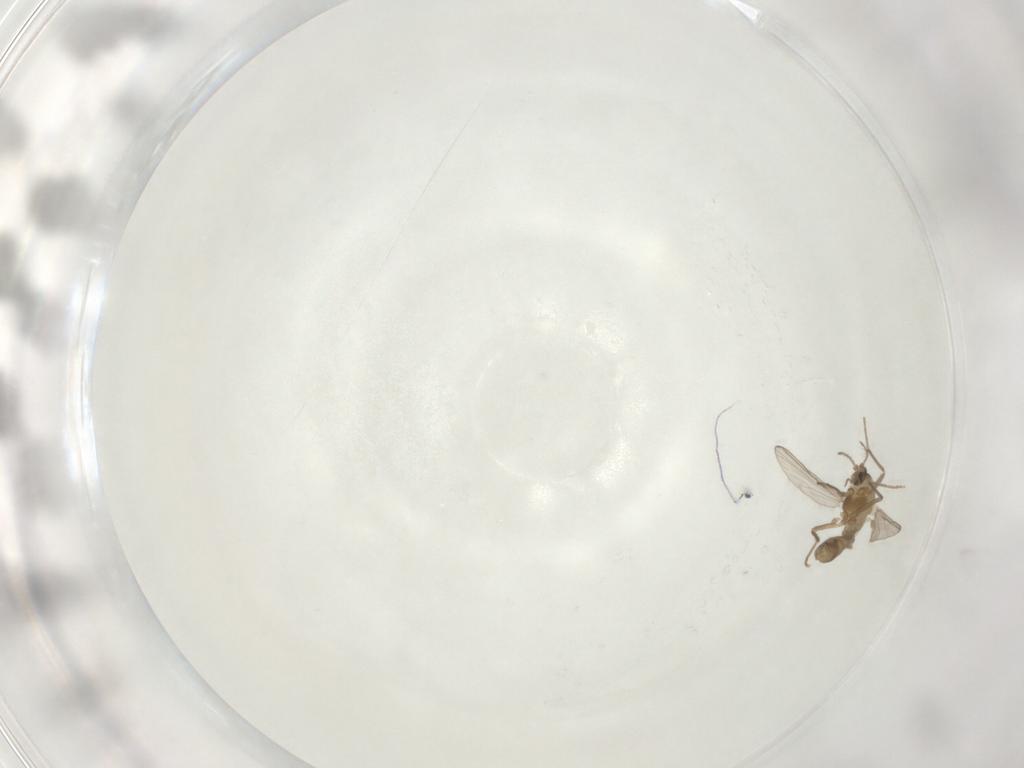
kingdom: Animalia
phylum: Arthropoda
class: Insecta
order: Diptera
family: Chironomidae
